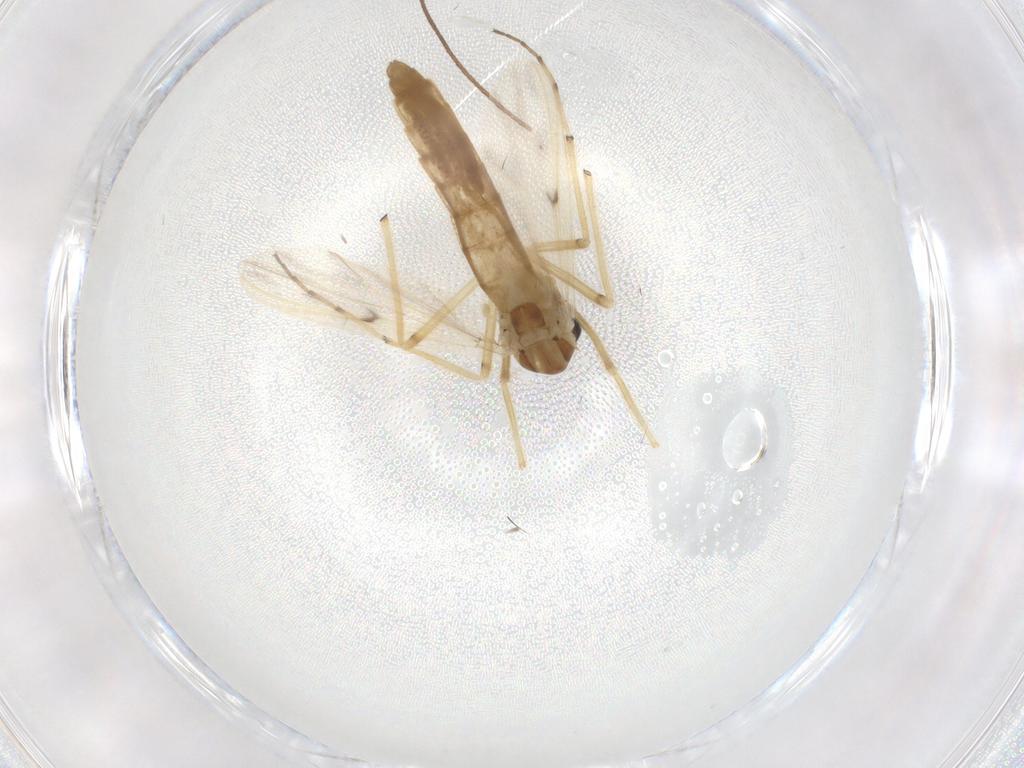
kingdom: Animalia
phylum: Arthropoda
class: Insecta
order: Diptera
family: Chironomidae
